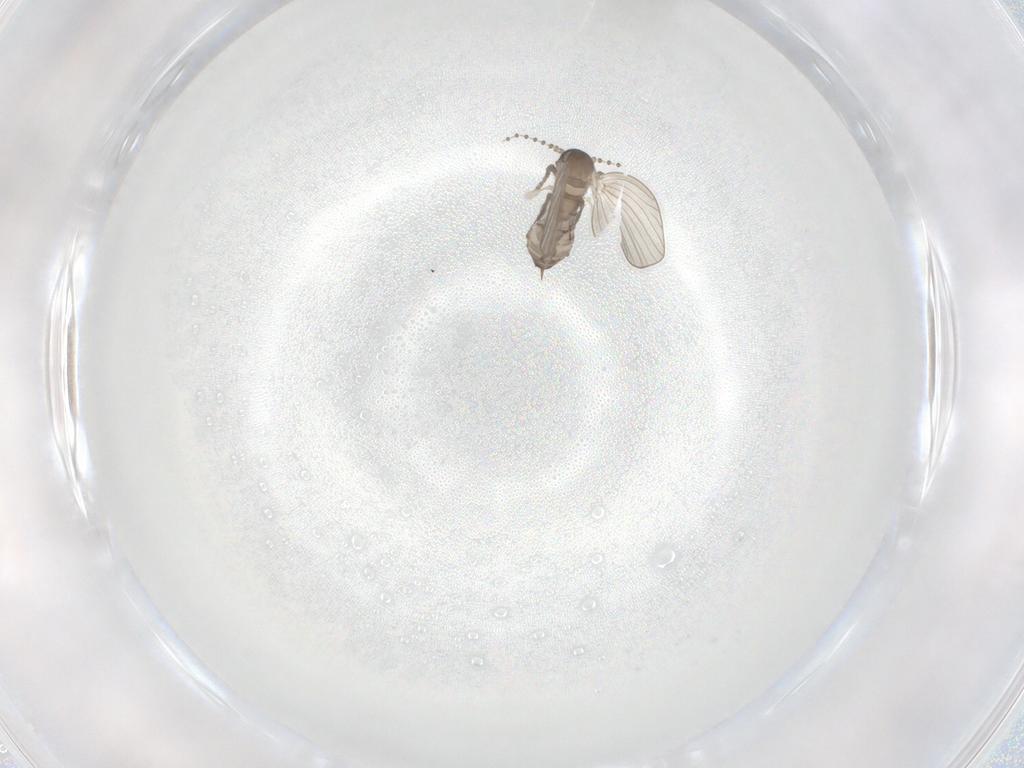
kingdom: Animalia
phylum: Arthropoda
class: Insecta
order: Diptera
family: Psychodidae
